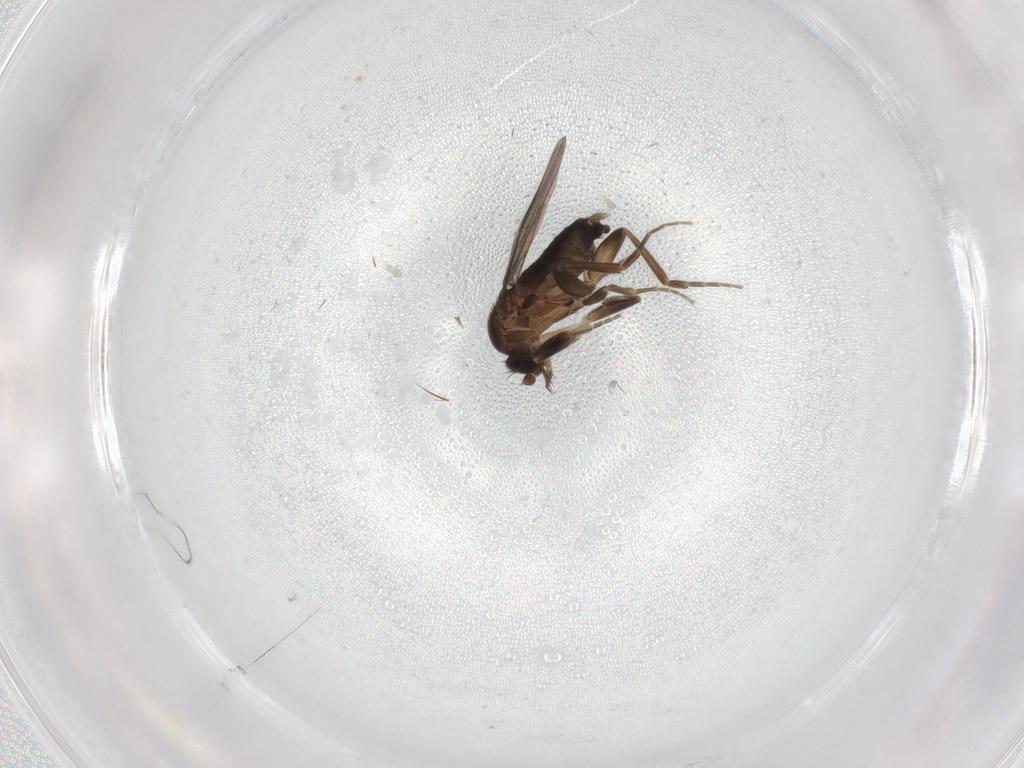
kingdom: Animalia
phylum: Arthropoda
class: Insecta
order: Diptera
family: Phoridae
